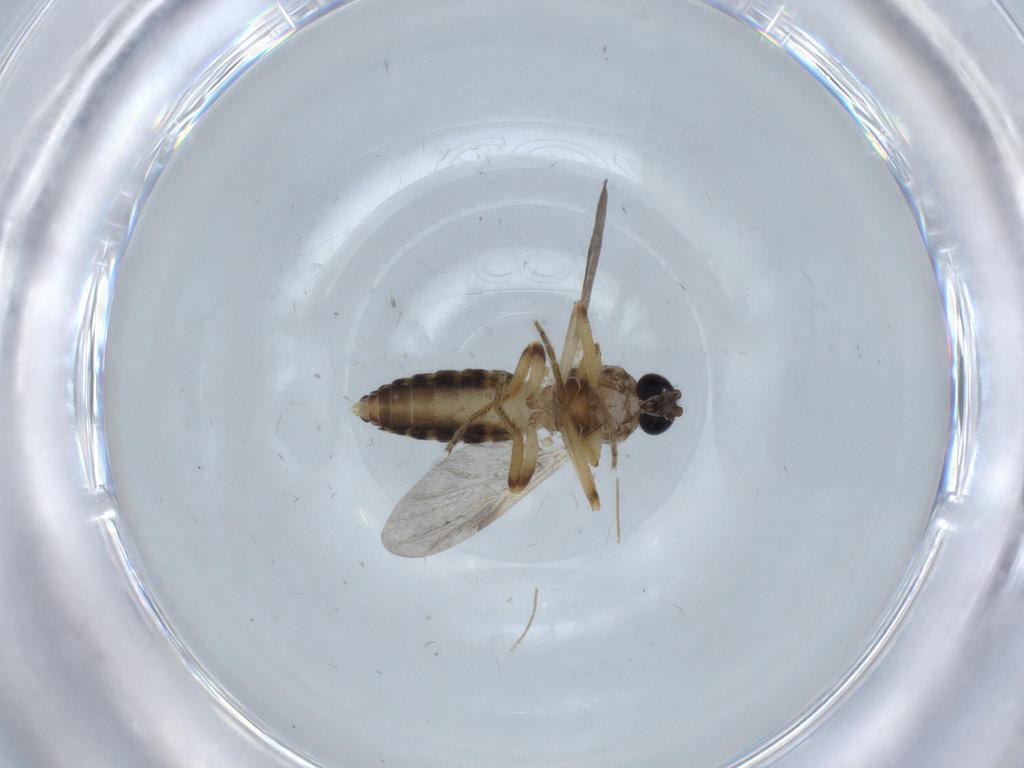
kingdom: Animalia
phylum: Arthropoda
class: Insecta
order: Diptera
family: Ceratopogonidae
